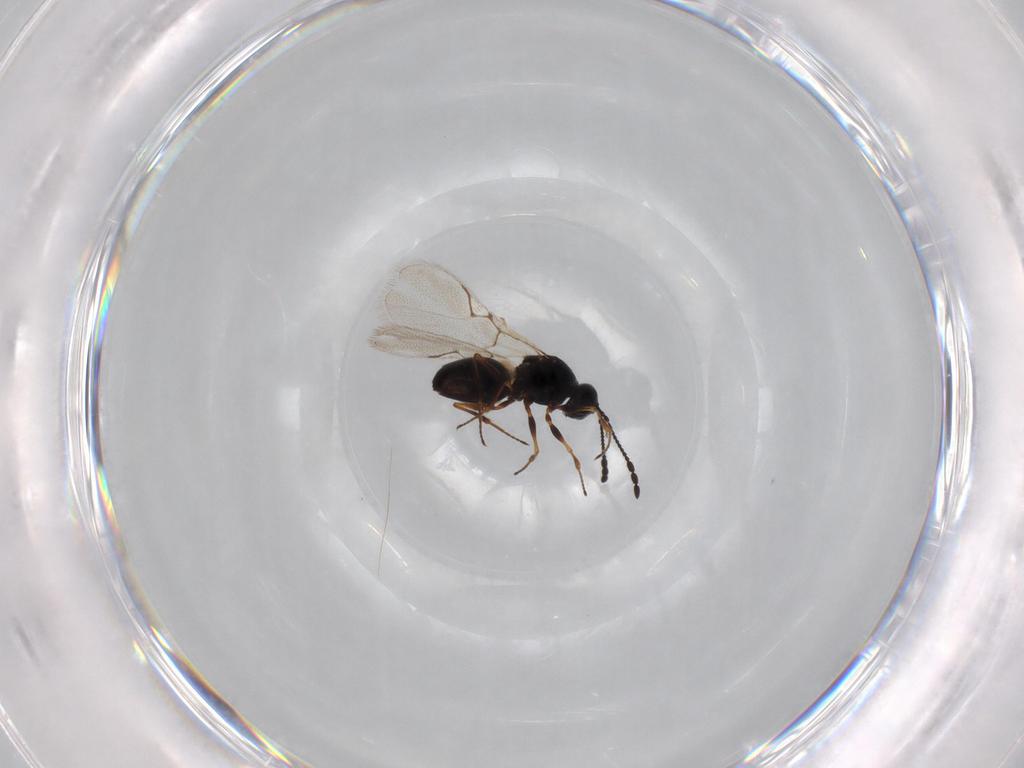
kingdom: Animalia
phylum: Arthropoda
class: Insecta
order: Hymenoptera
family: Figitidae
